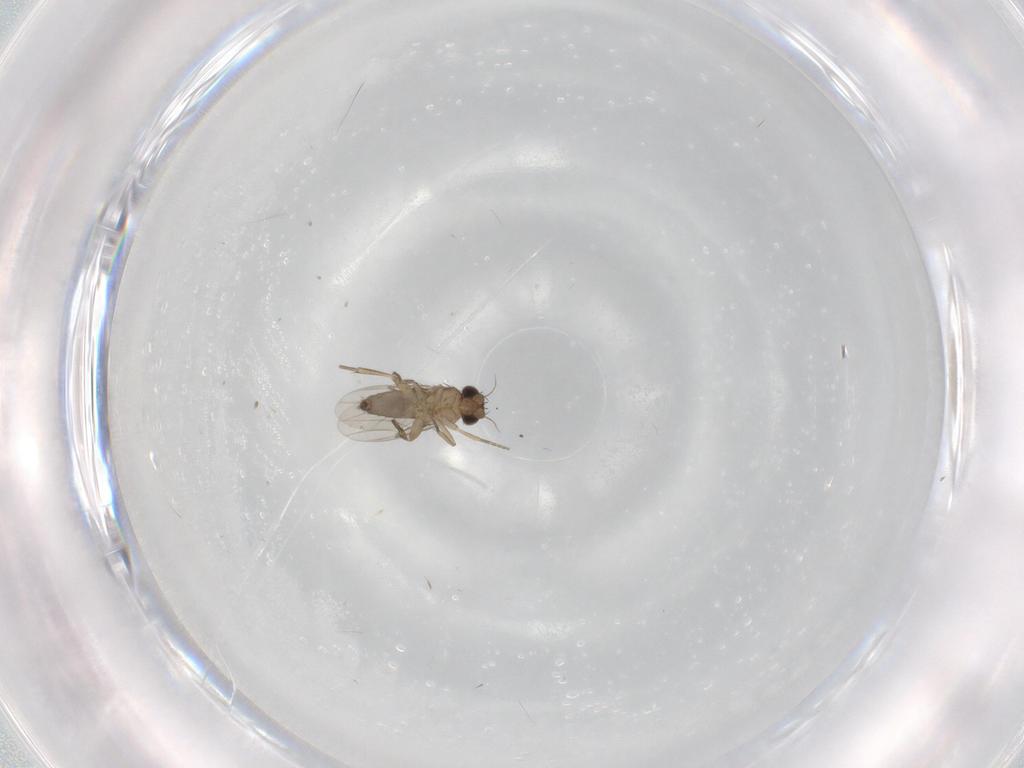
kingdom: Animalia
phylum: Arthropoda
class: Insecta
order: Diptera
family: Phoridae
